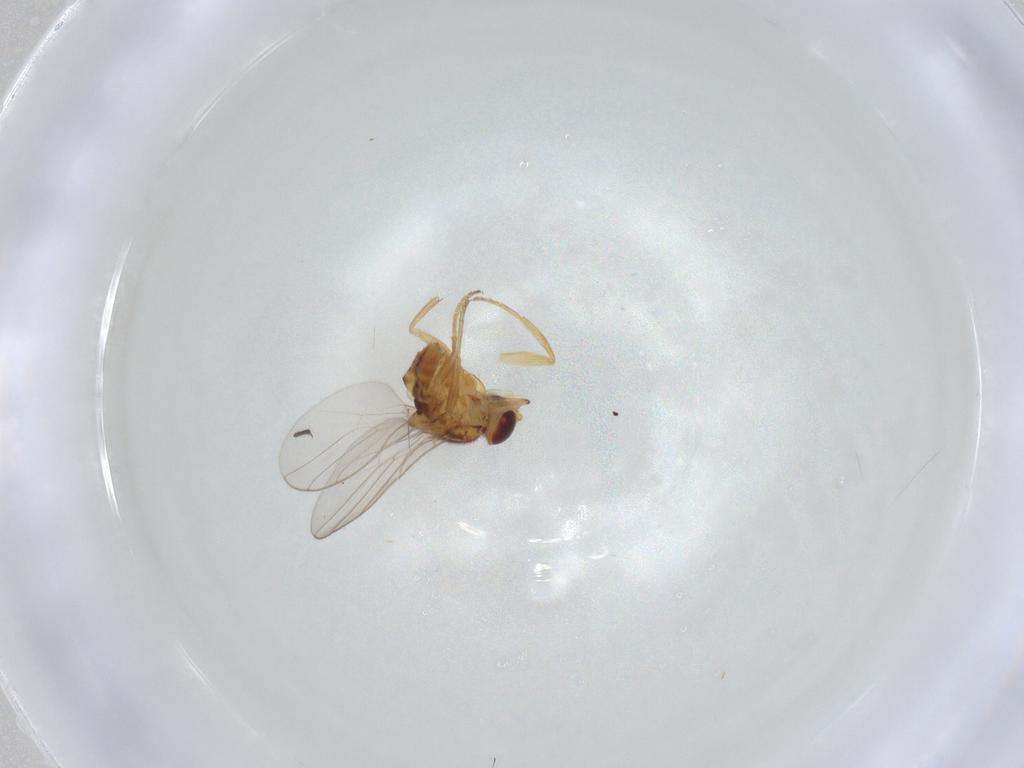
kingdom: Animalia
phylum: Arthropoda
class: Insecta
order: Diptera
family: Chloropidae
